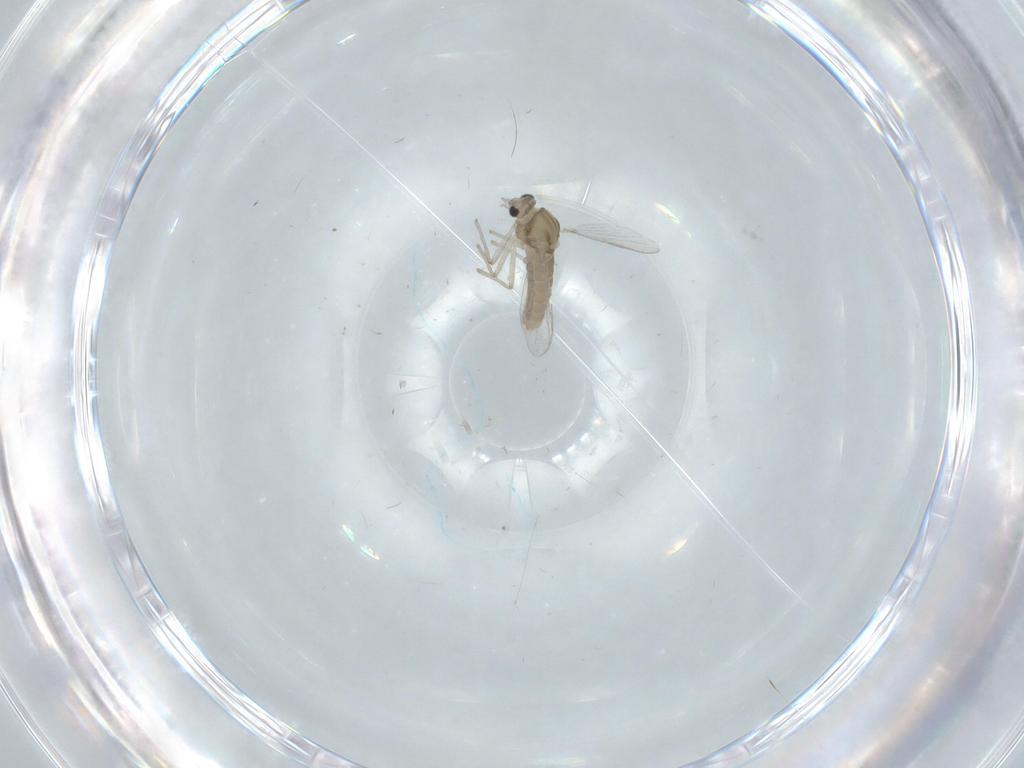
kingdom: Animalia
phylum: Arthropoda
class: Insecta
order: Diptera
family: Chironomidae
